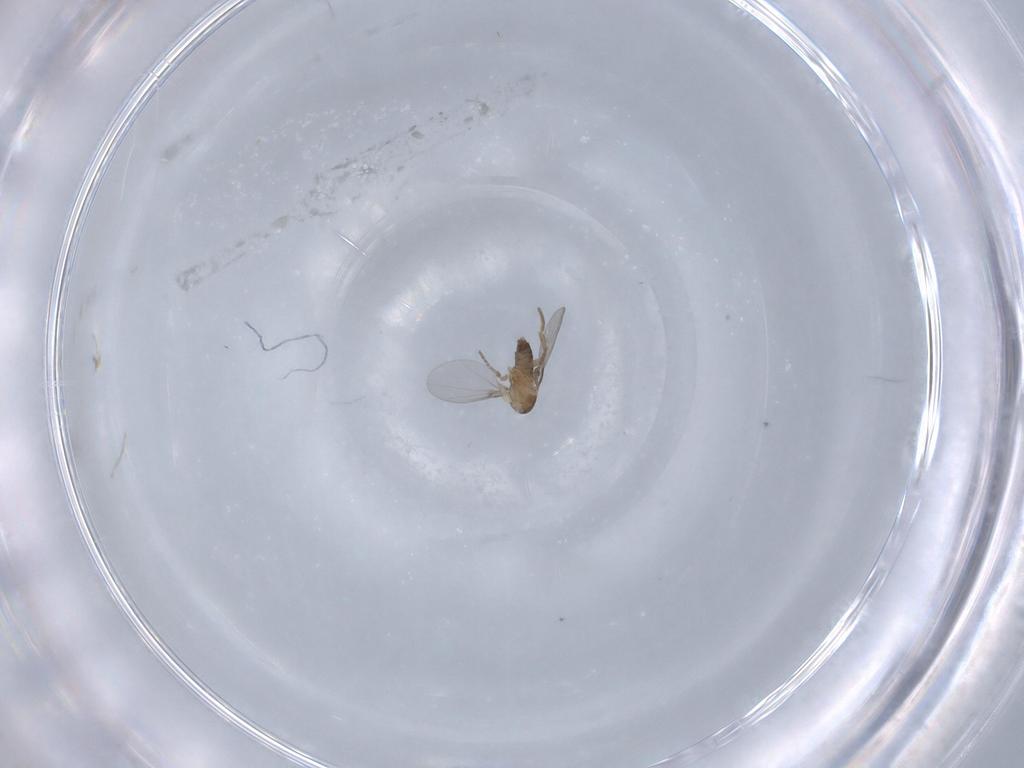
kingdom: Animalia
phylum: Arthropoda
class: Insecta
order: Diptera
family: Phoridae
